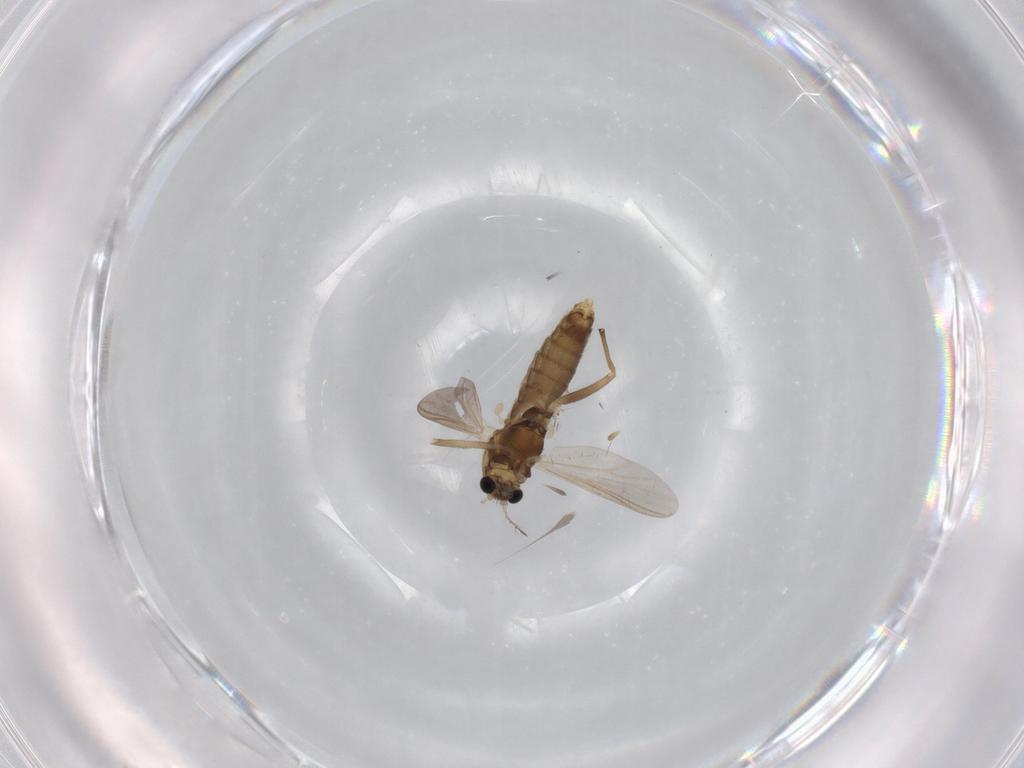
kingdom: Animalia
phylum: Arthropoda
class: Insecta
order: Diptera
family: Chironomidae
